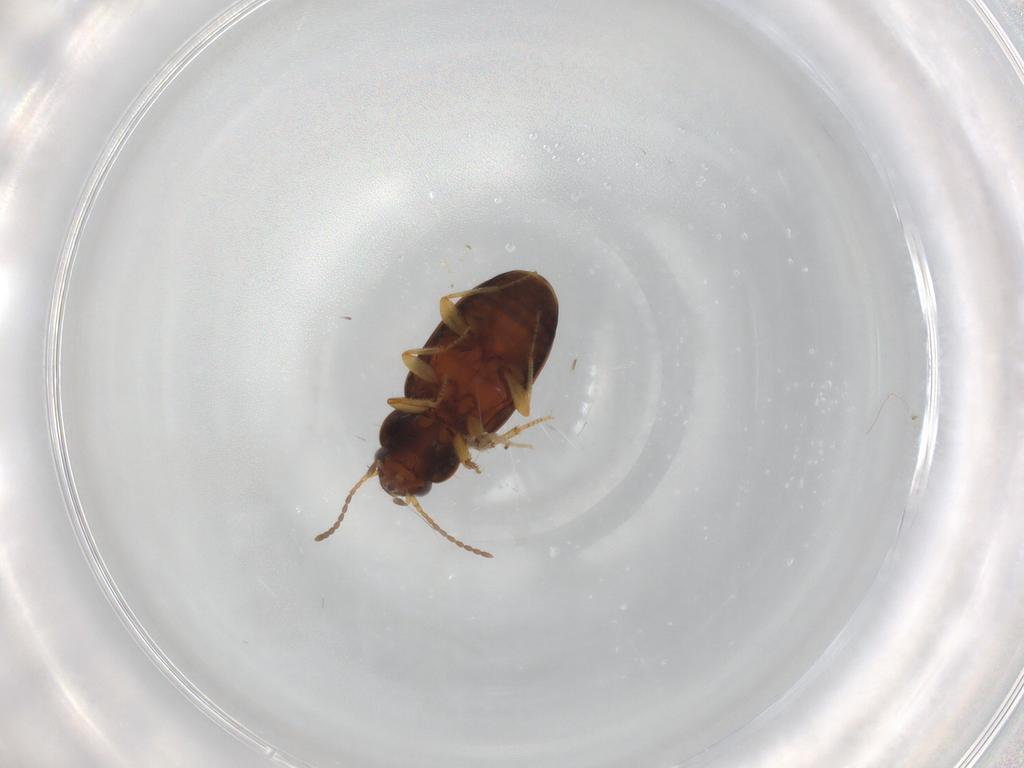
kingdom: Animalia
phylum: Arthropoda
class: Insecta
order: Coleoptera
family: Carabidae
